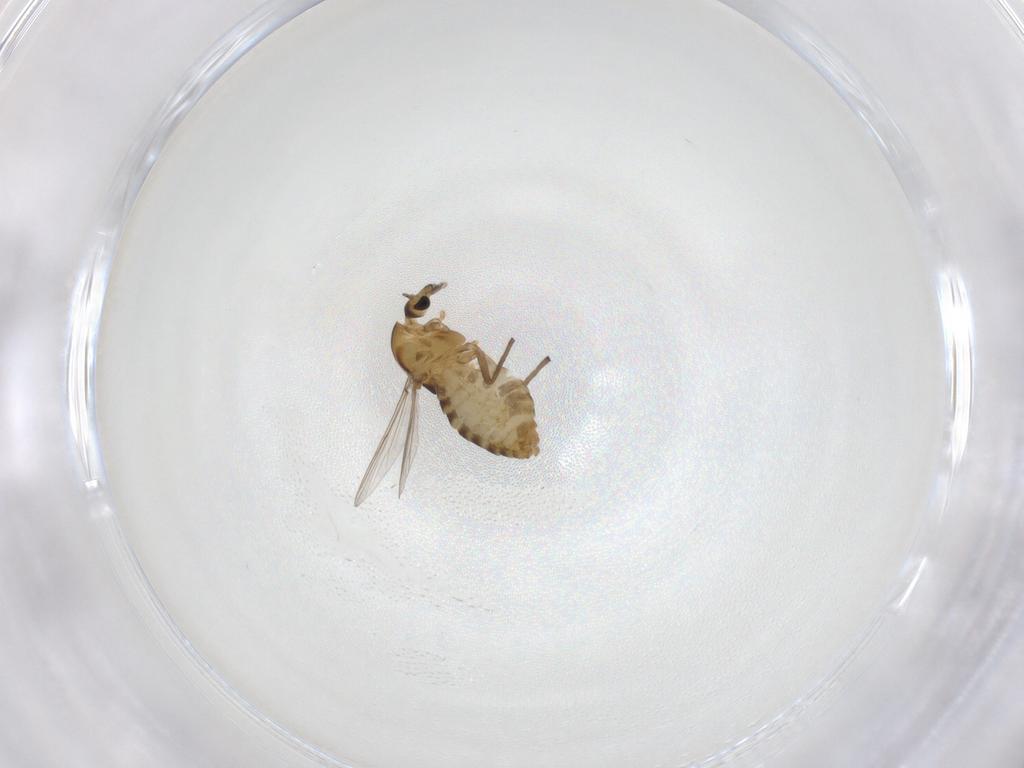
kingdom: Animalia
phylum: Arthropoda
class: Insecta
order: Diptera
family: Chironomidae
